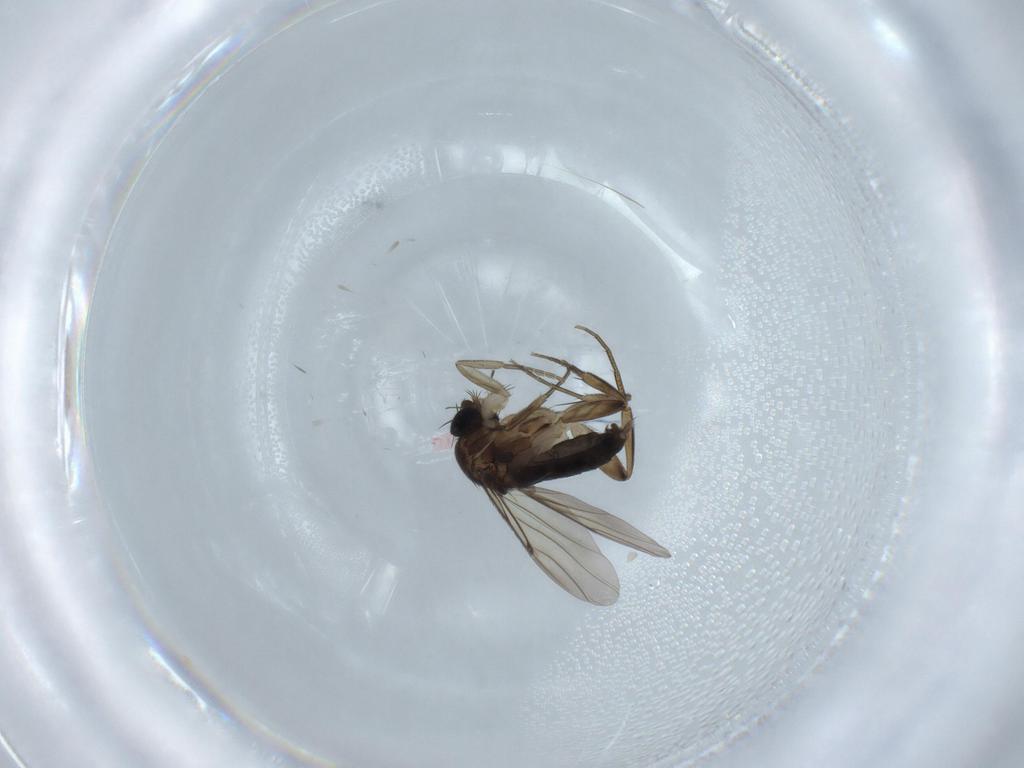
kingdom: Animalia
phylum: Arthropoda
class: Insecta
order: Diptera
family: Phoridae
